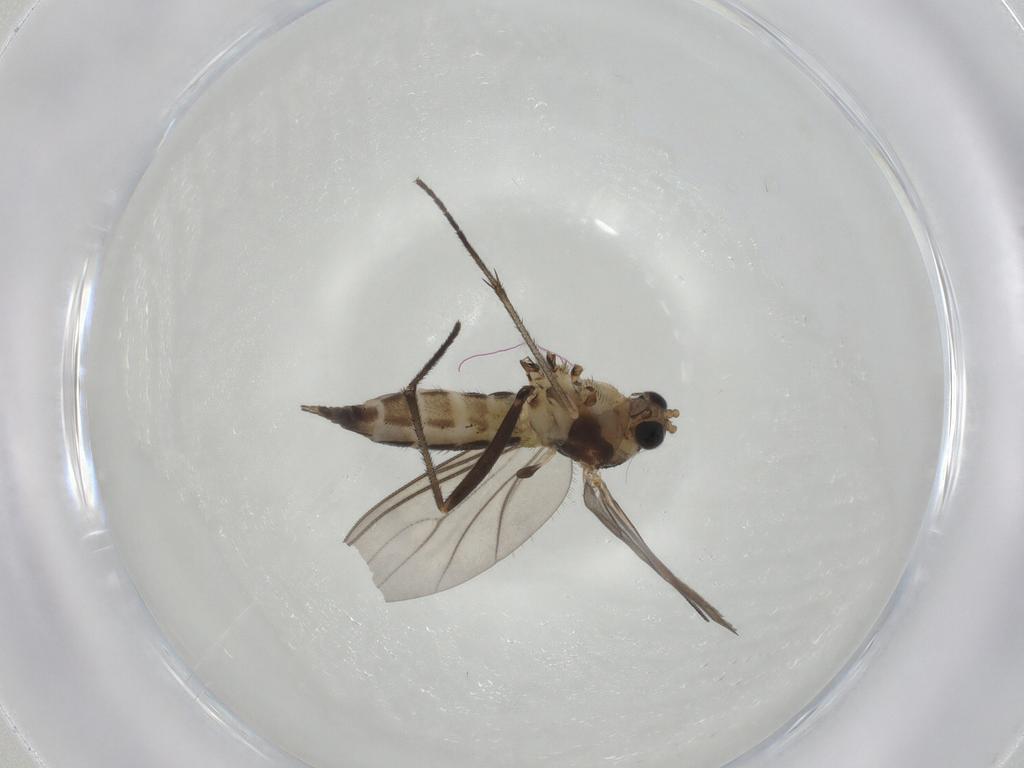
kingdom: Animalia
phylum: Arthropoda
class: Insecta
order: Diptera
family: Sciaridae
